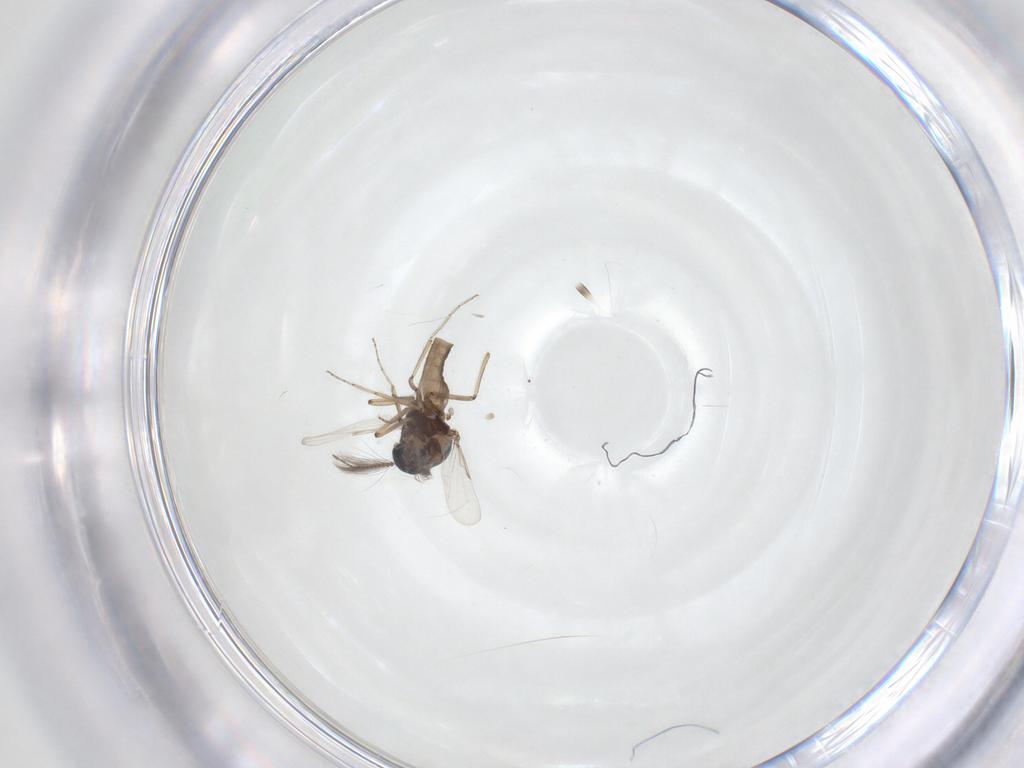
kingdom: Animalia
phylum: Arthropoda
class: Insecta
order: Diptera
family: Ceratopogonidae
